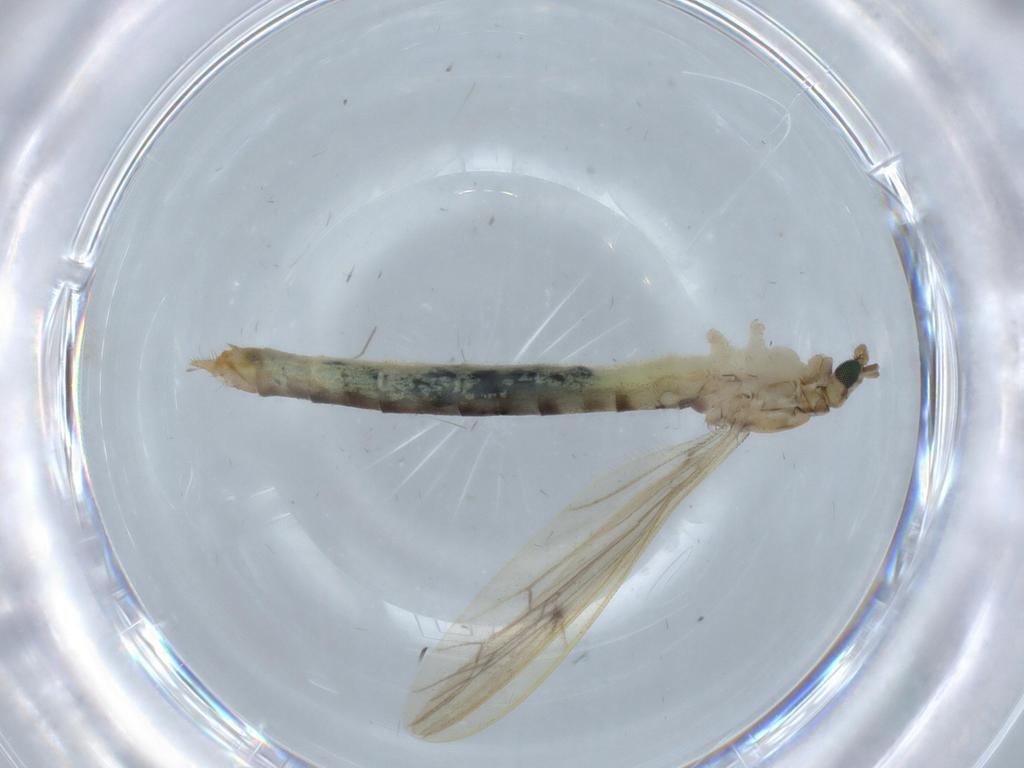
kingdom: Animalia
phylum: Arthropoda
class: Insecta
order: Diptera
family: Limoniidae
